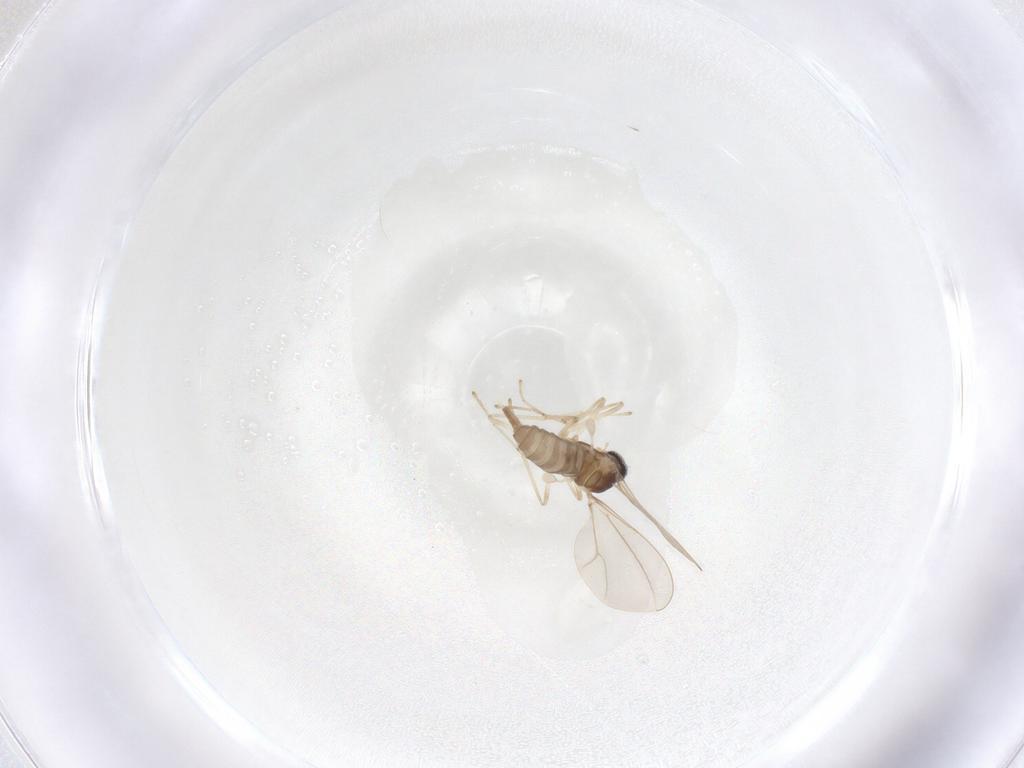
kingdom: Animalia
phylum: Arthropoda
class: Insecta
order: Diptera
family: Cecidomyiidae
